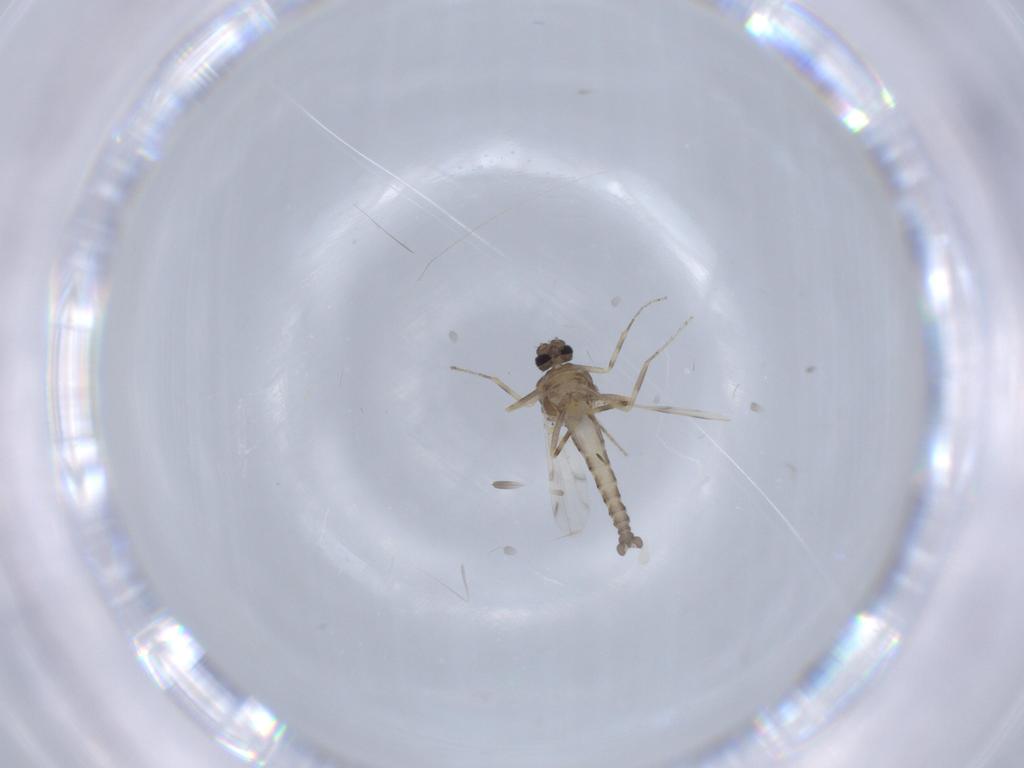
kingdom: Animalia
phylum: Arthropoda
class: Insecta
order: Diptera
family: Ceratopogonidae
